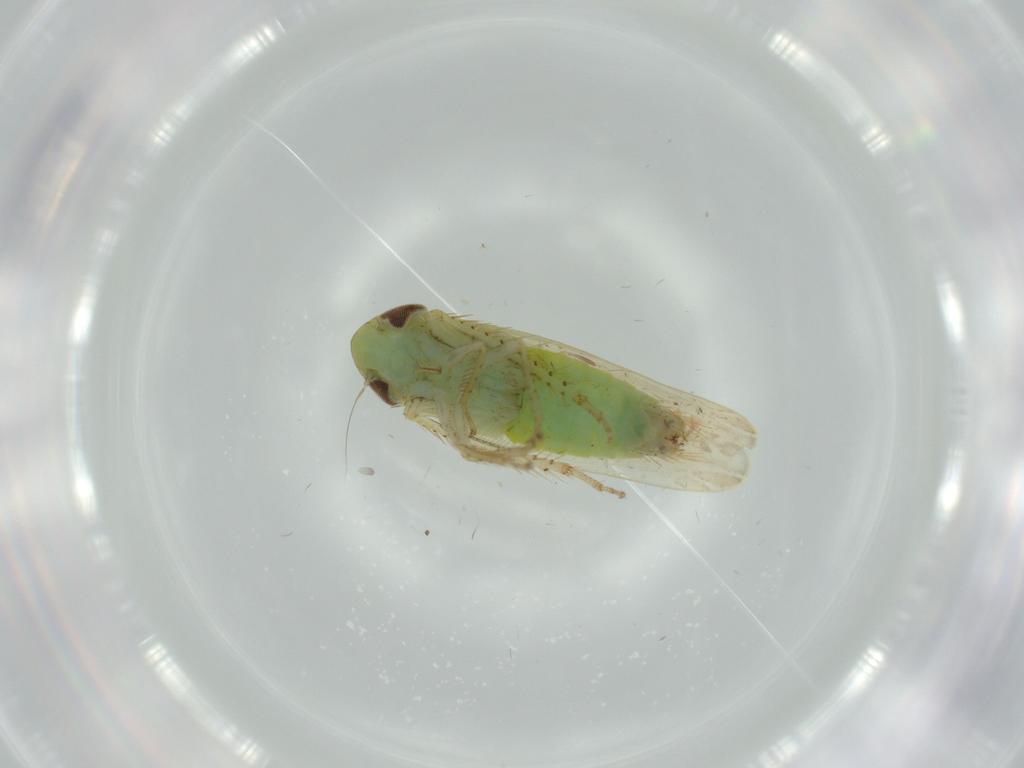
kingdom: Animalia
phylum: Arthropoda
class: Insecta
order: Hemiptera
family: Cicadellidae
